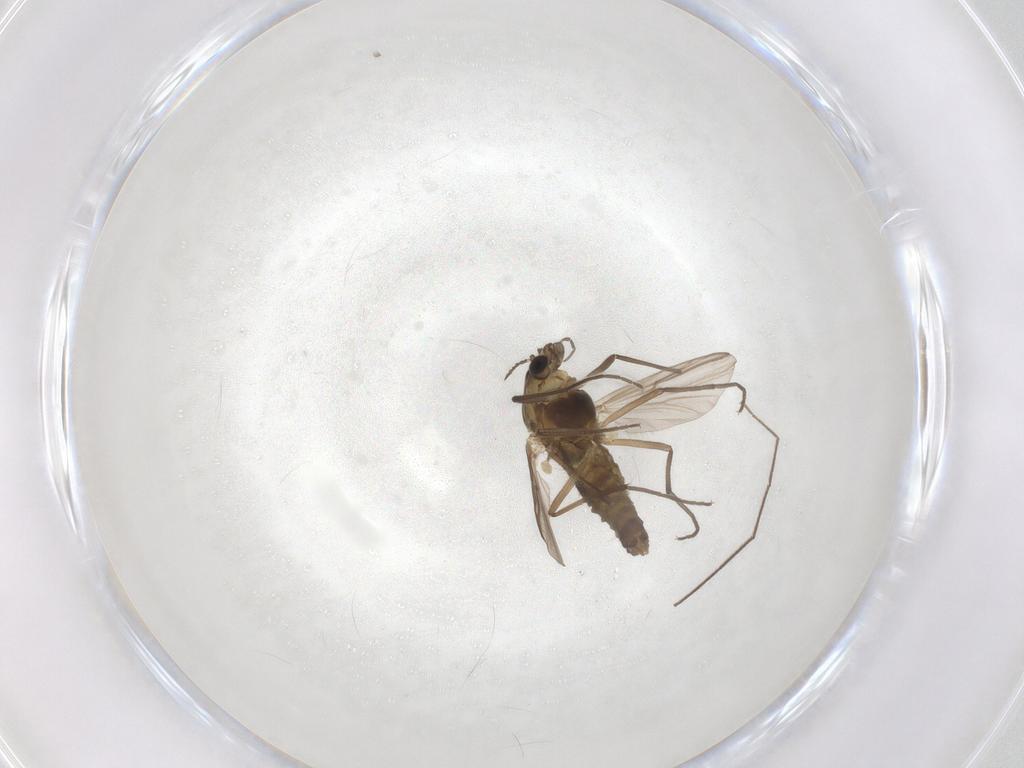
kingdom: Animalia
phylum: Arthropoda
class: Insecta
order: Diptera
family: Chironomidae
